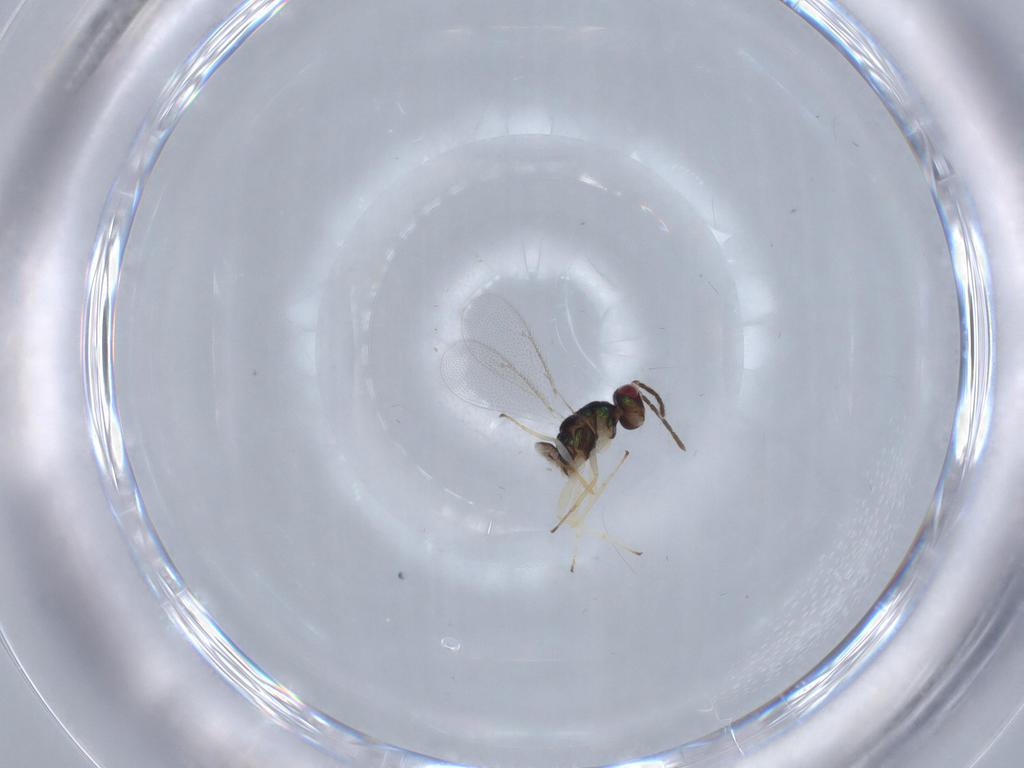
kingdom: Animalia
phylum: Arthropoda
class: Insecta
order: Hymenoptera
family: Eulophidae
